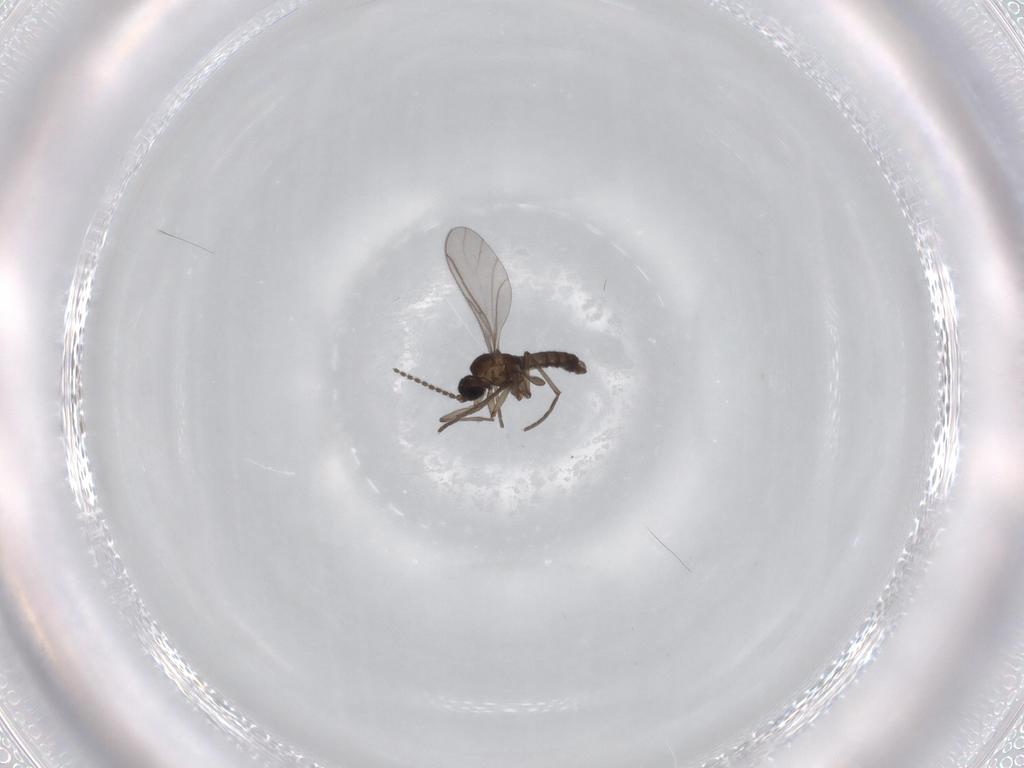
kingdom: Animalia
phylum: Arthropoda
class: Insecta
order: Diptera
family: Sciaridae
